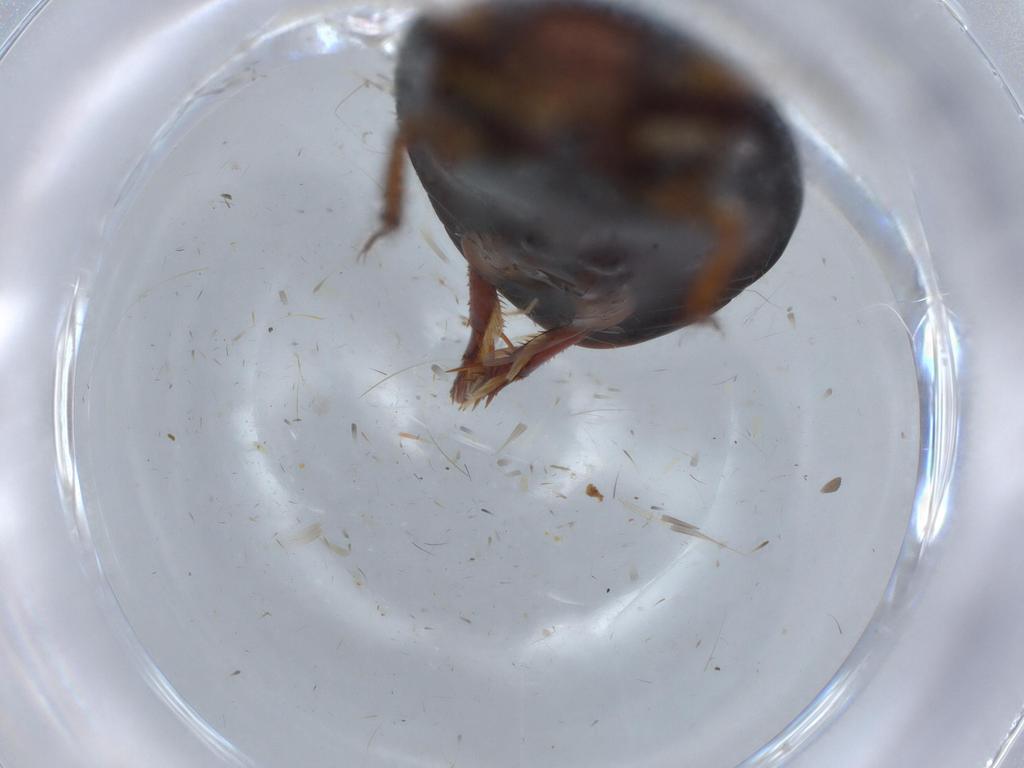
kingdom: Animalia
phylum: Arthropoda
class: Insecta
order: Coleoptera
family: Dytiscidae
